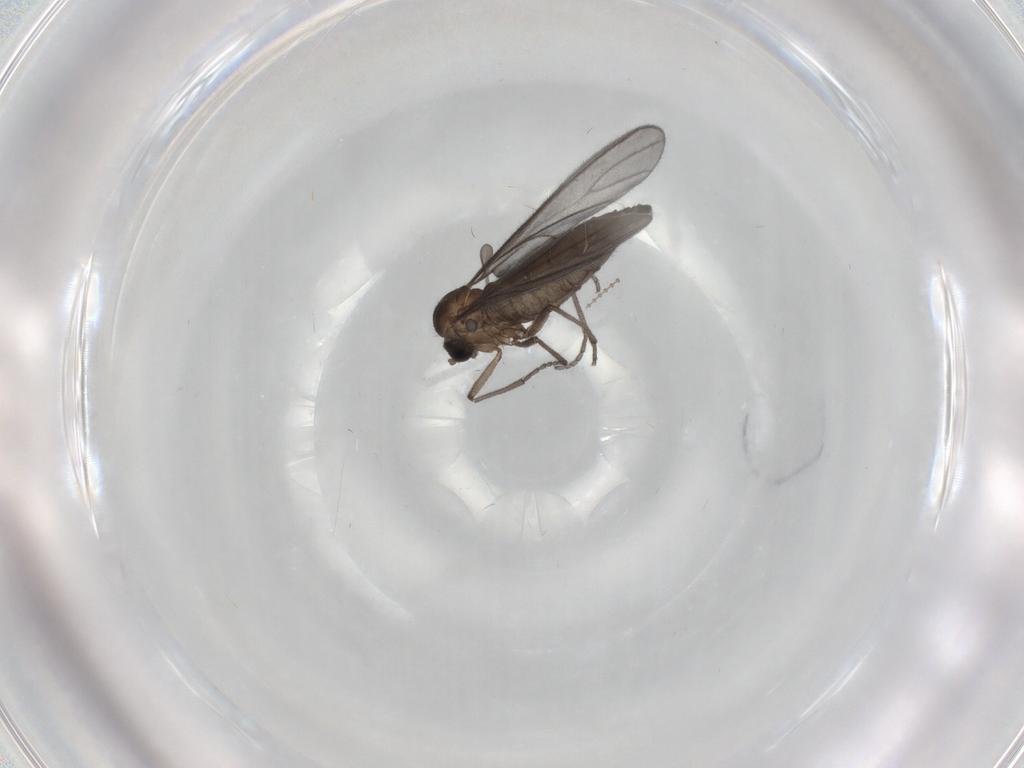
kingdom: Animalia
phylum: Arthropoda
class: Insecta
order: Diptera
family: Sciaridae
